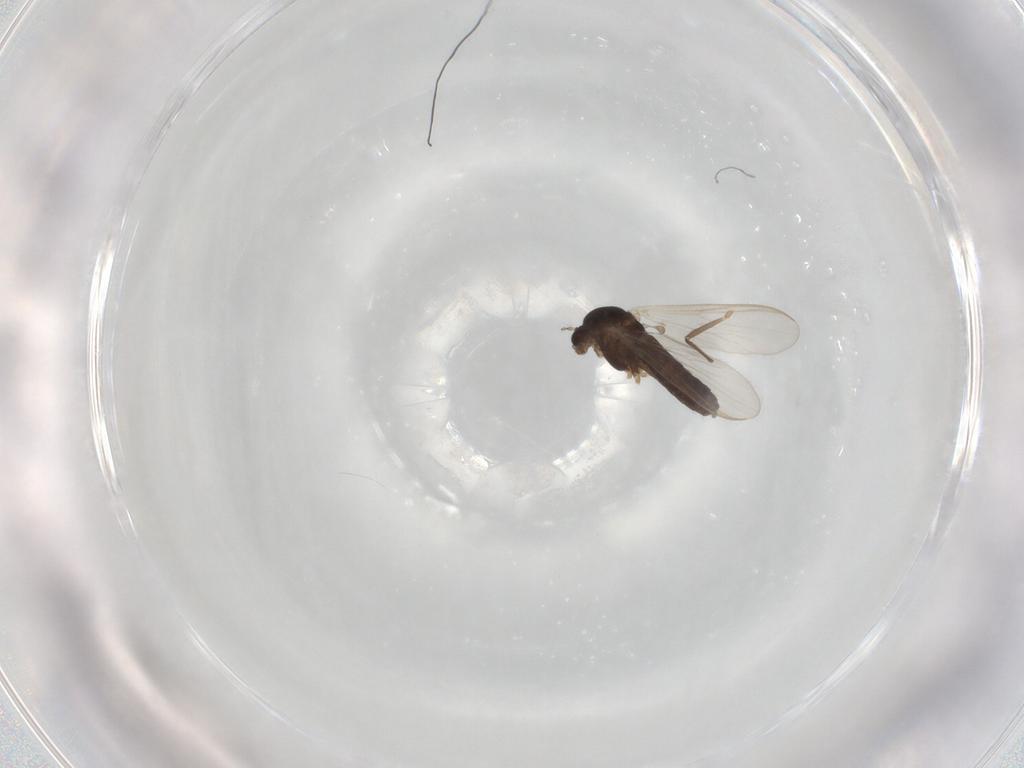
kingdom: Animalia
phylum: Arthropoda
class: Insecta
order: Diptera
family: Chironomidae
